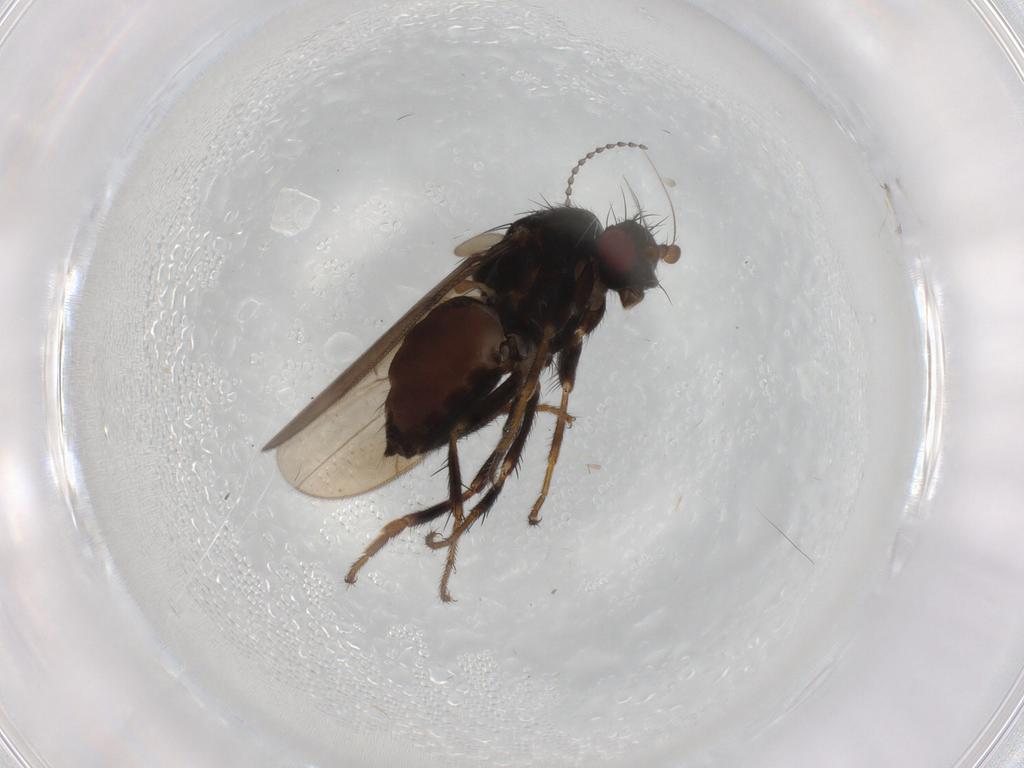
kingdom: Animalia
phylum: Arthropoda
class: Insecta
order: Diptera
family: Sphaeroceridae
